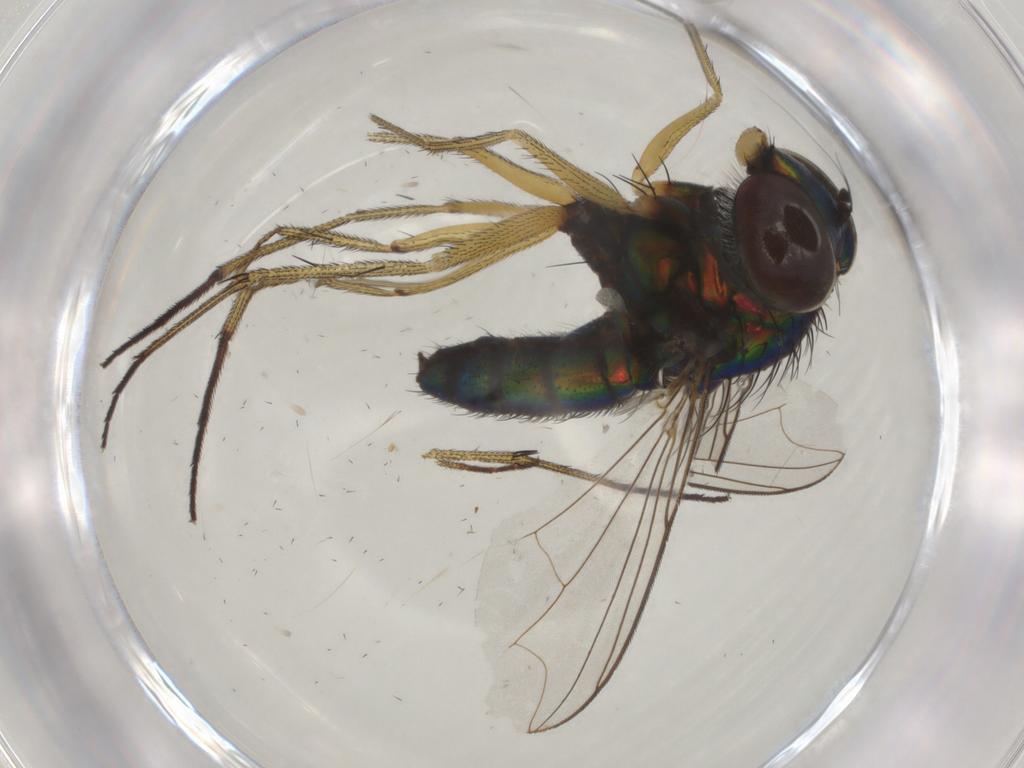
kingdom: Animalia
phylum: Arthropoda
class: Insecta
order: Diptera
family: Dolichopodidae
